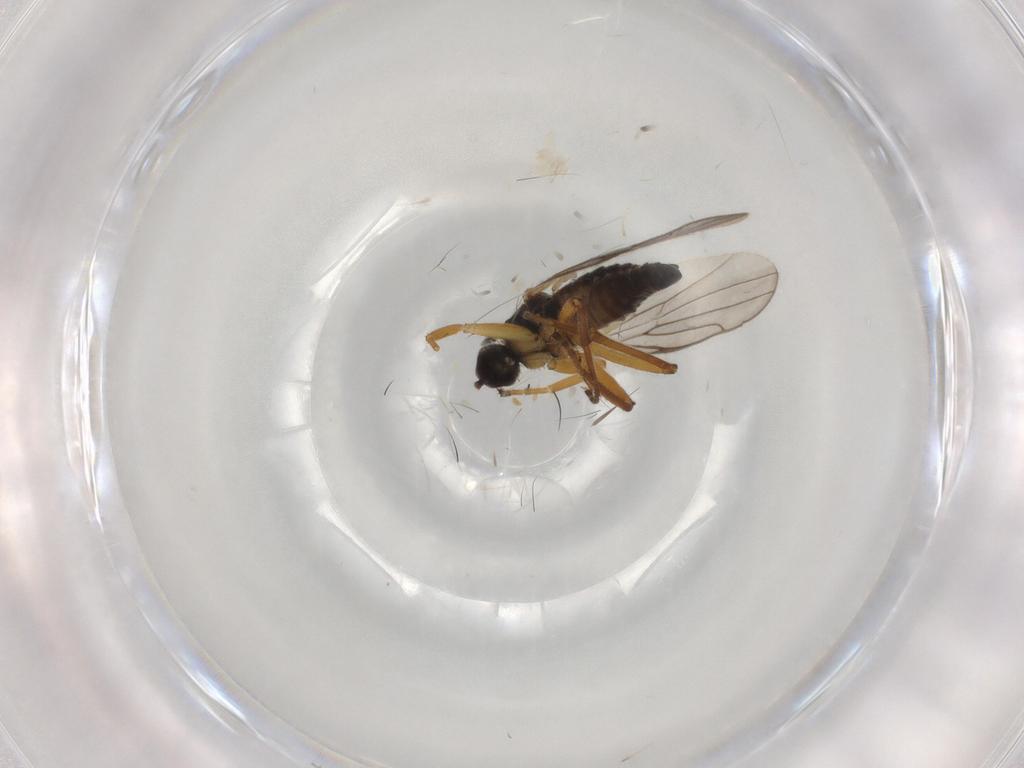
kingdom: Animalia
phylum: Arthropoda
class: Insecta
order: Diptera
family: Hybotidae
